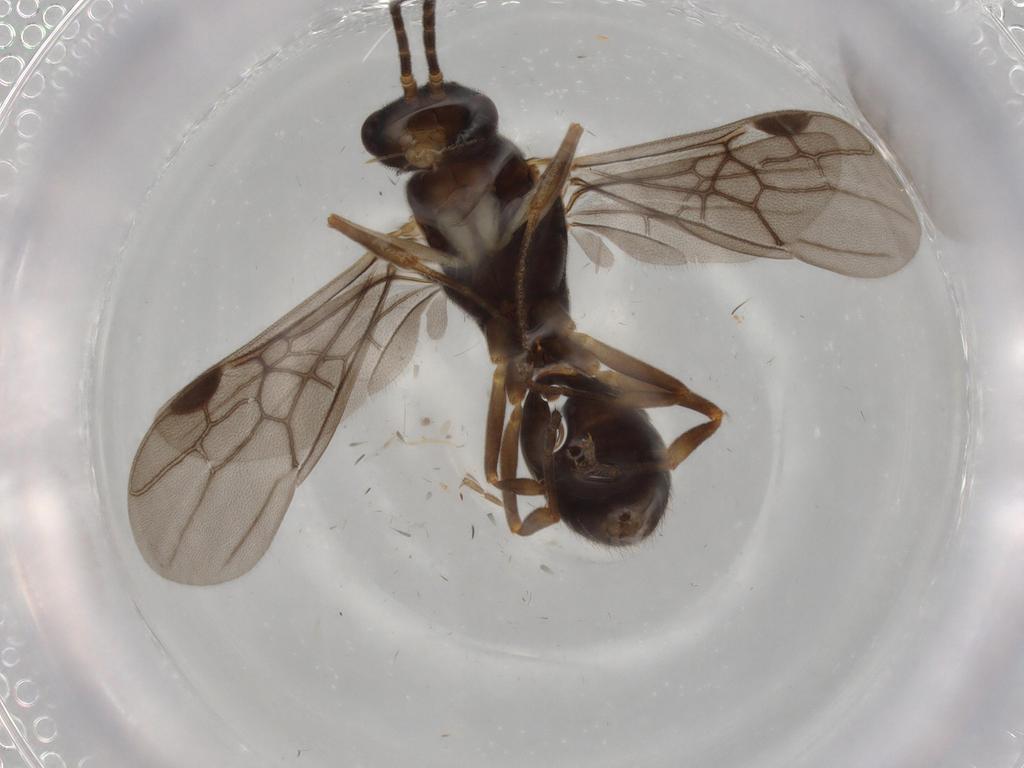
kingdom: Animalia
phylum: Arthropoda
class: Insecta
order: Hymenoptera
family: Formicidae
